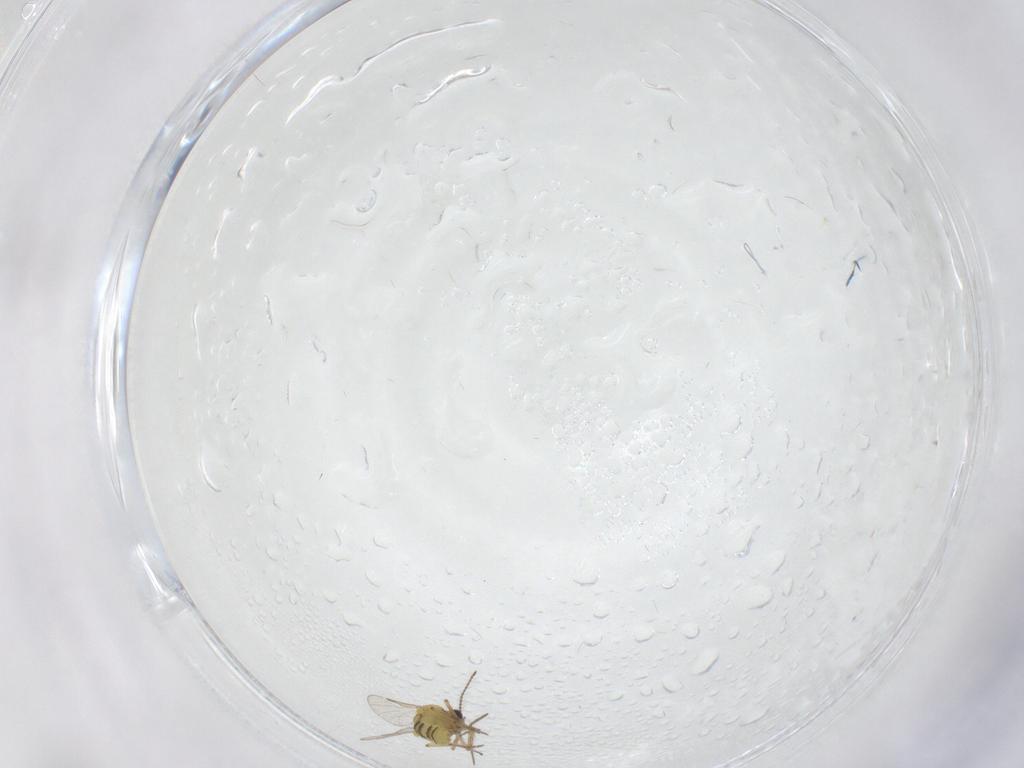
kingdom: Animalia
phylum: Arthropoda
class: Insecta
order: Diptera
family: Ceratopogonidae
